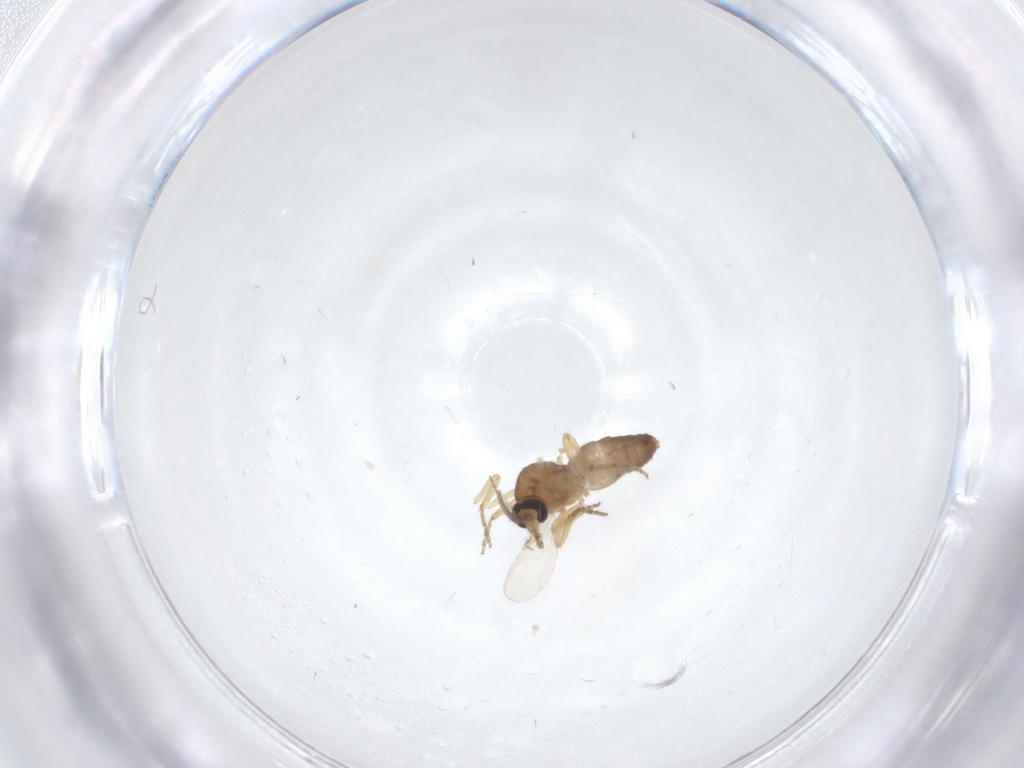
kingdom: Animalia
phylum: Arthropoda
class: Insecta
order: Diptera
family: Ceratopogonidae
